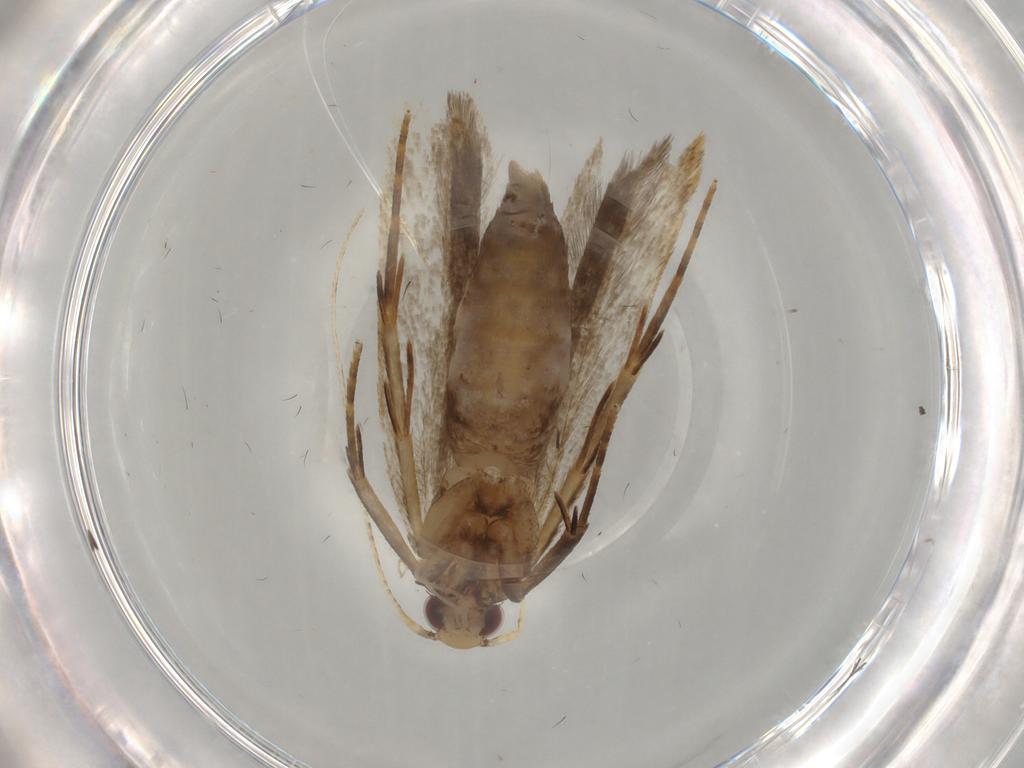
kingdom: Animalia
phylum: Arthropoda
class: Insecta
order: Lepidoptera
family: Gelechiidae
